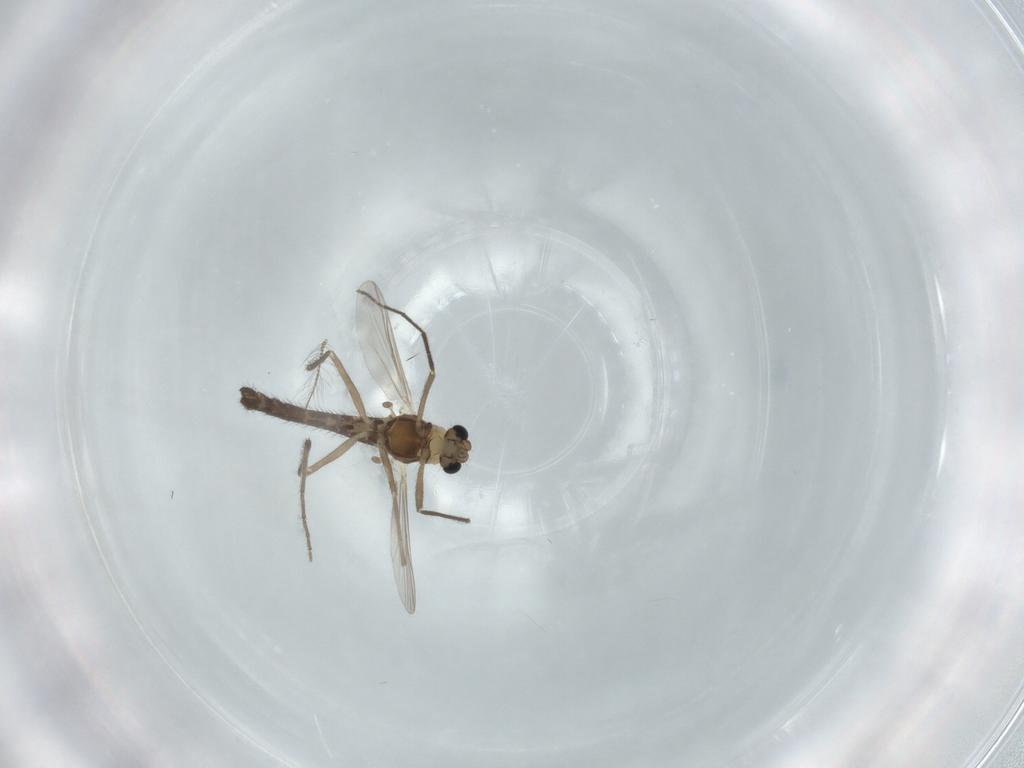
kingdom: Animalia
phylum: Arthropoda
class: Insecta
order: Diptera
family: Chironomidae
